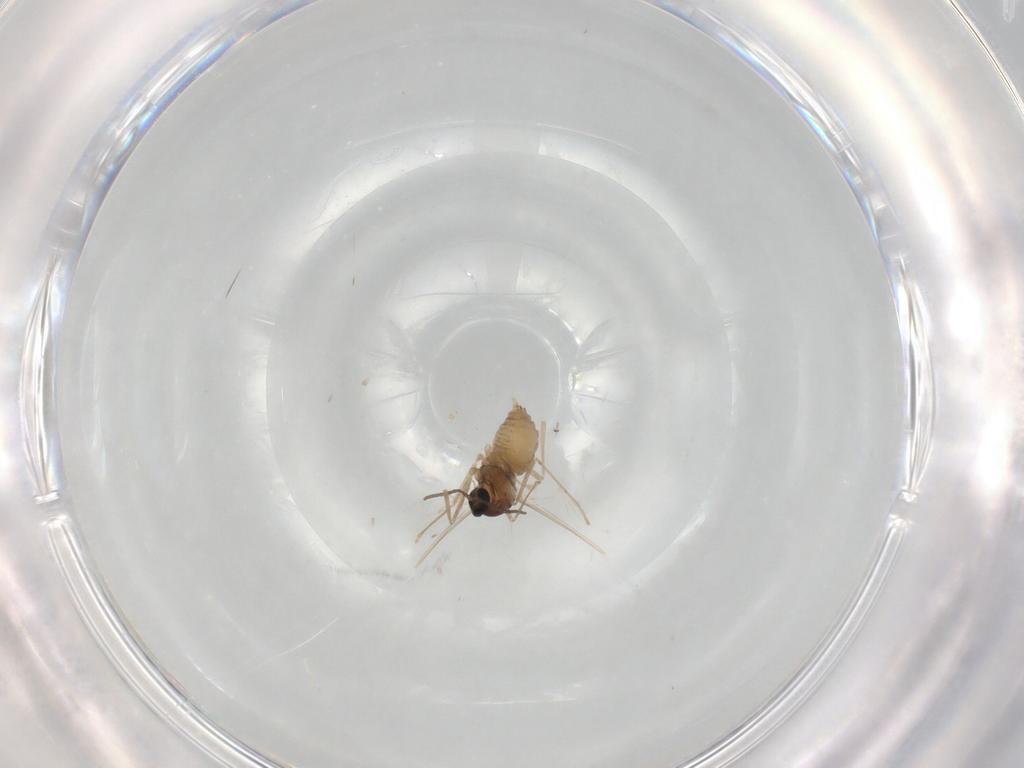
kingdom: Animalia
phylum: Arthropoda
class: Insecta
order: Diptera
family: Cecidomyiidae
